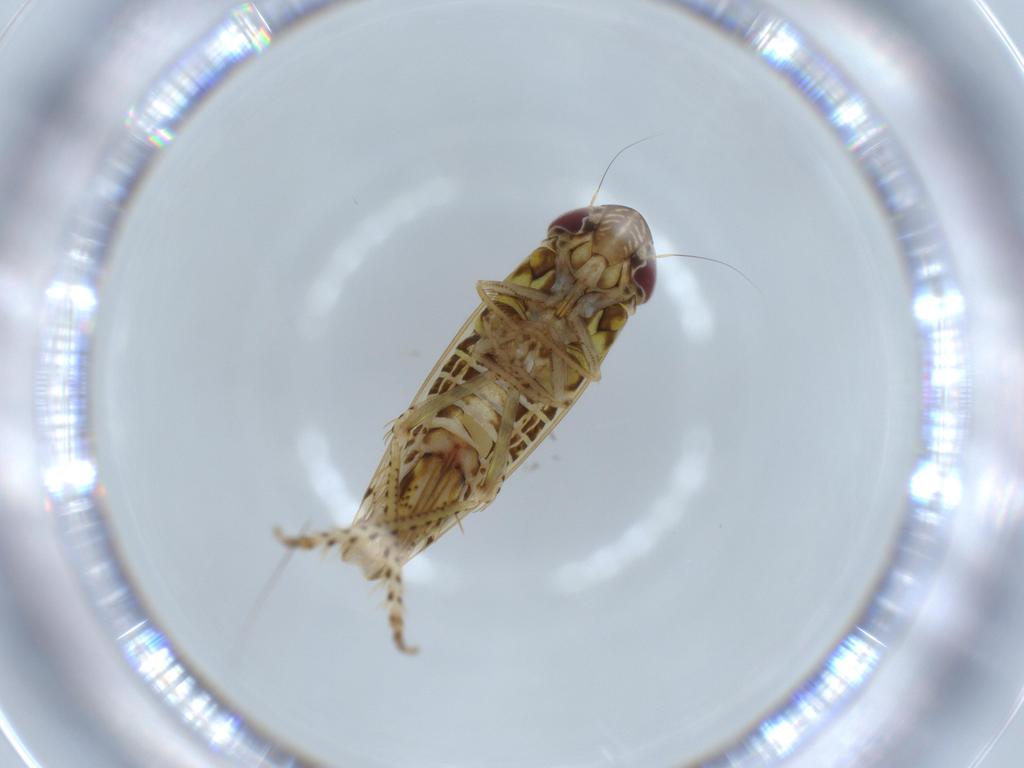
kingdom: Animalia
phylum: Arthropoda
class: Insecta
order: Hemiptera
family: Cicadellidae
